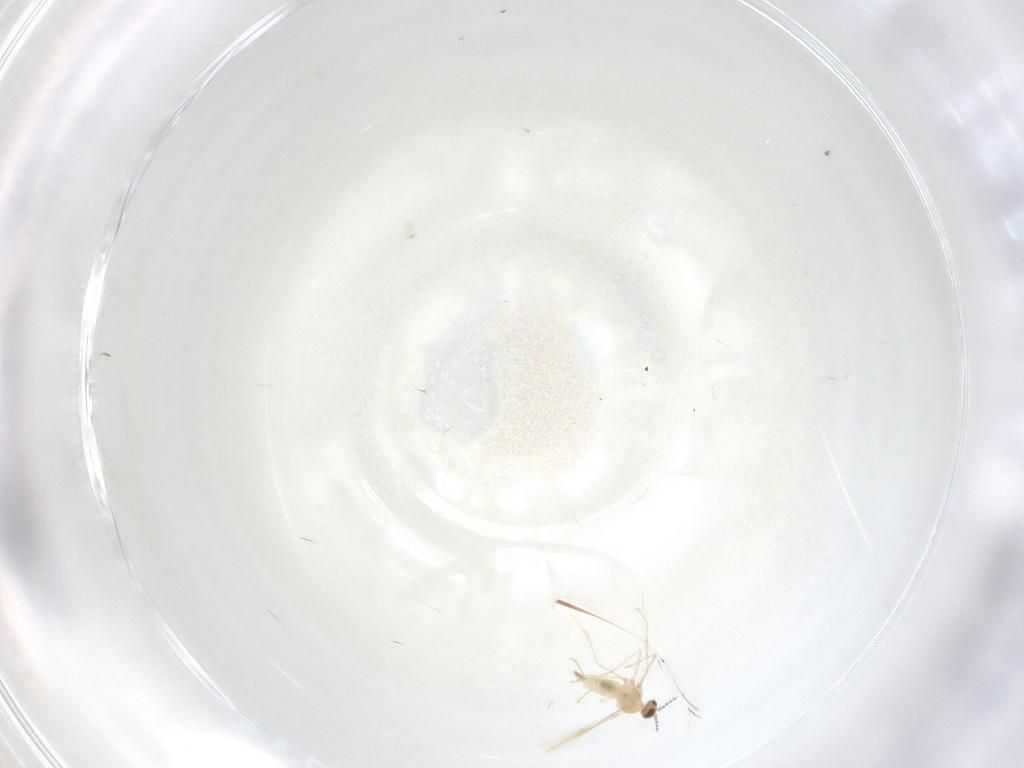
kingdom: Animalia
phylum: Arthropoda
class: Insecta
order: Diptera
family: Cecidomyiidae
